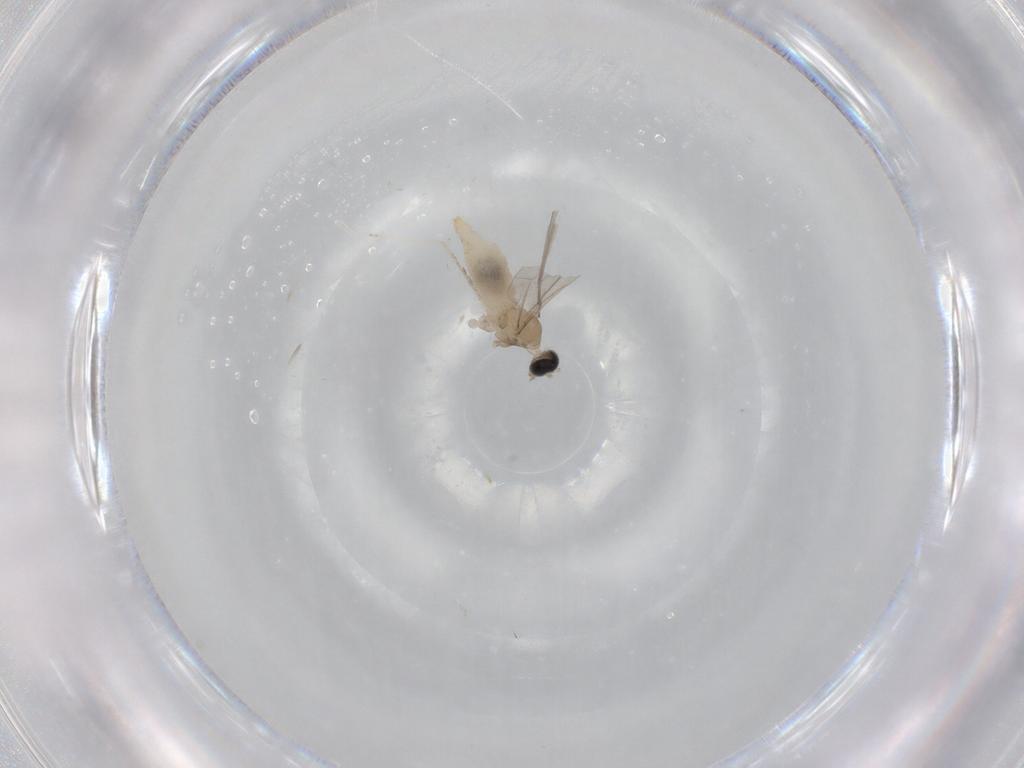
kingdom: Animalia
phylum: Arthropoda
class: Insecta
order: Diptera
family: Cecidomyiidae
